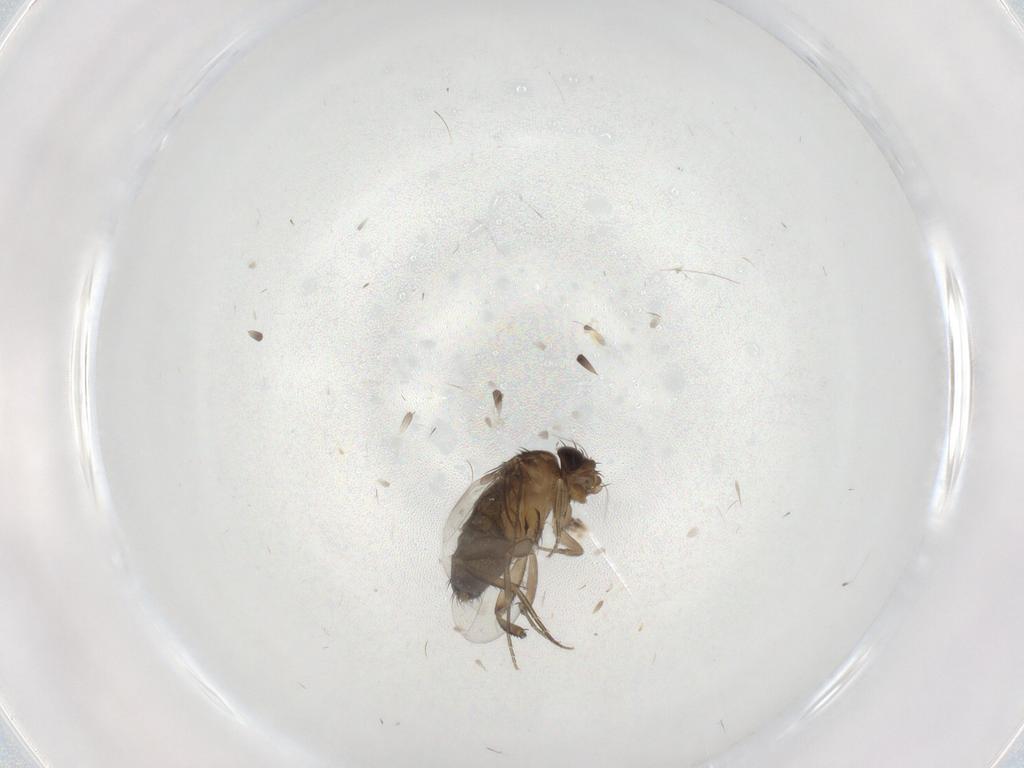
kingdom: Animalia
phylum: Arthropoda
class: Insecta
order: Diptera
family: Phoridae
